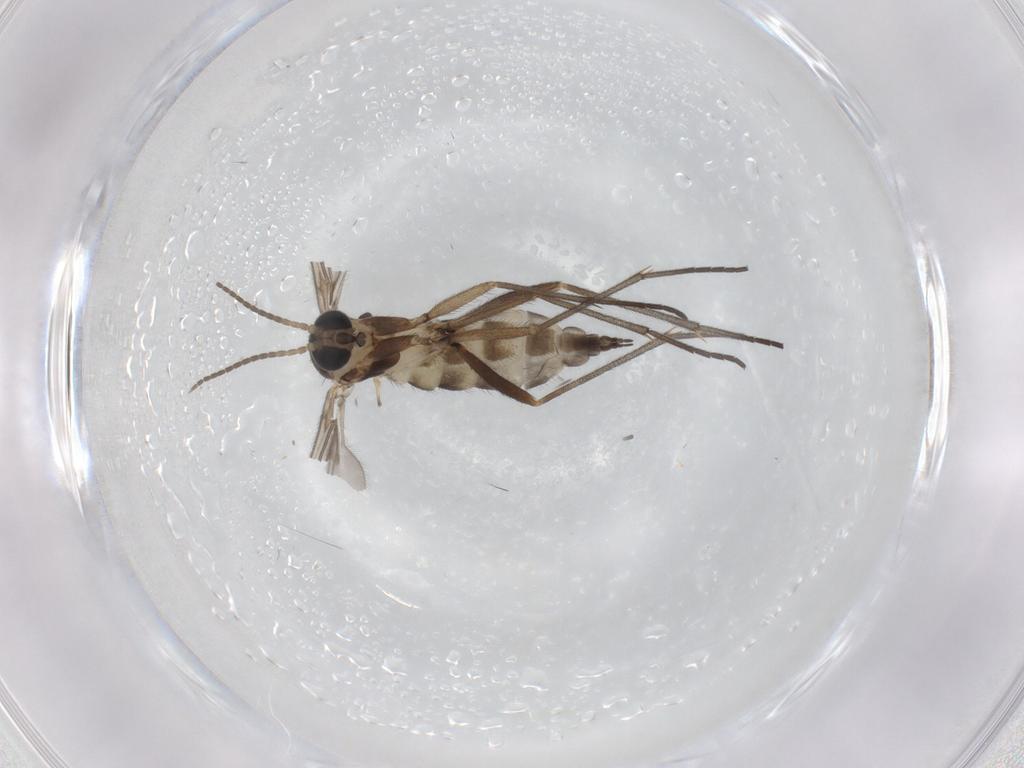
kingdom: Animalia
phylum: Arthropoda
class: Insecta
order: Diptera
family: Sciaridae
